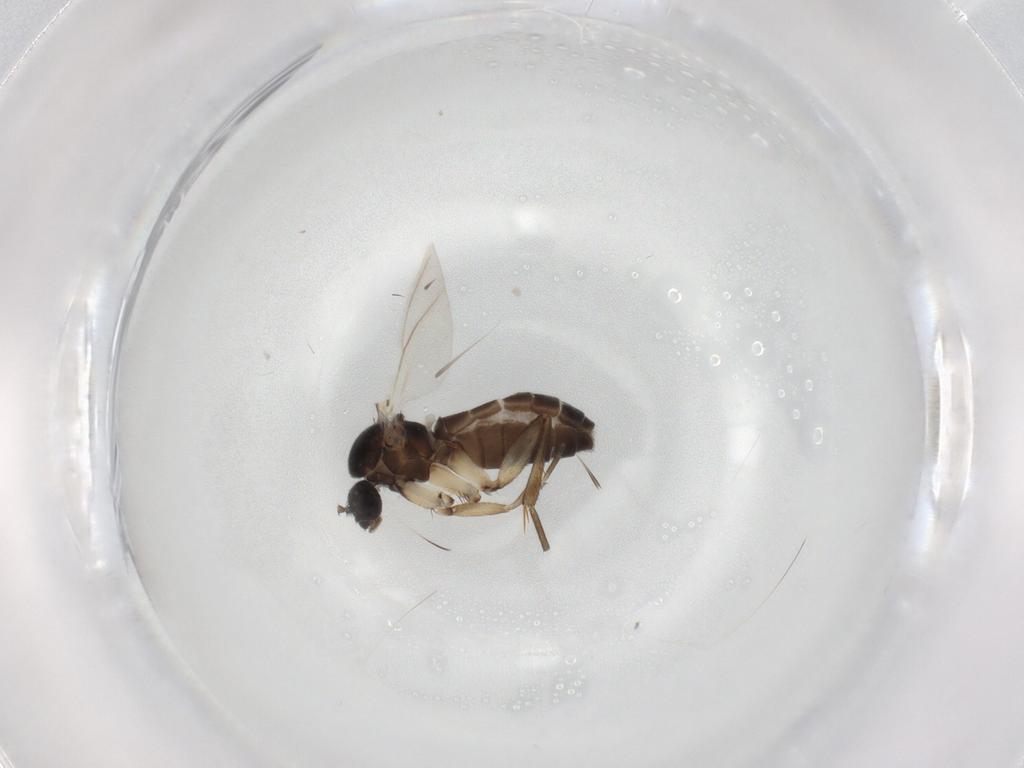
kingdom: Animalia
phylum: Arthropoda
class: Insecta
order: Diptera
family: Mycetophilidae
